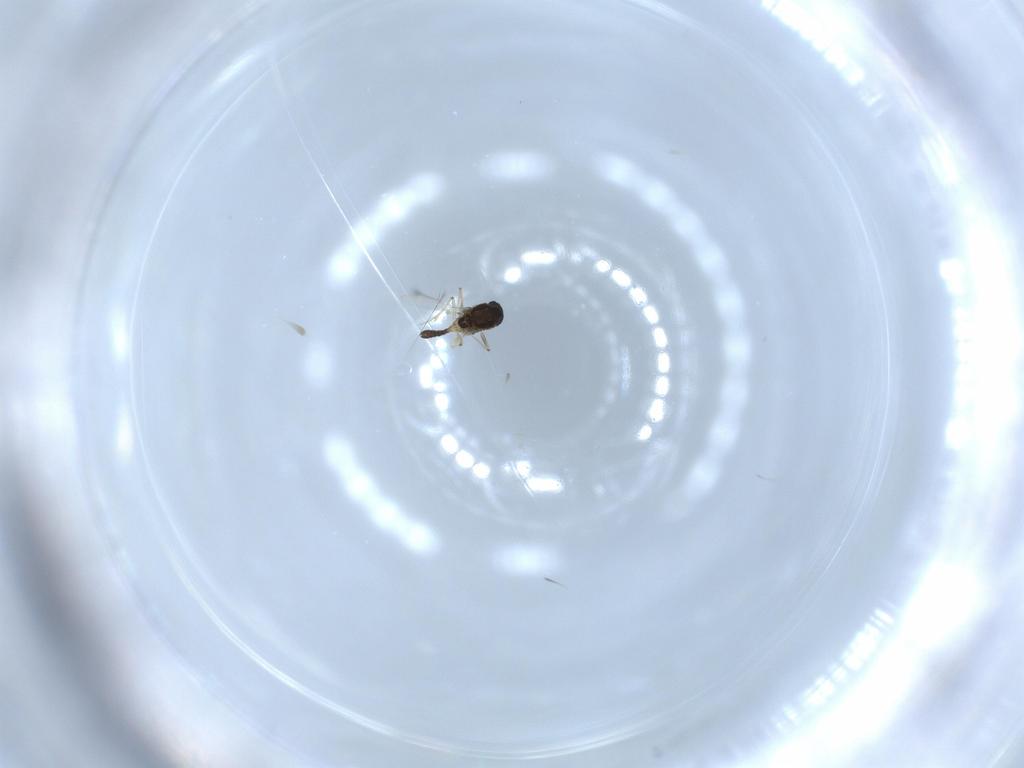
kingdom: Animalia
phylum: Arthropoda
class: Insecta
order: Diptera
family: Chironomidae
